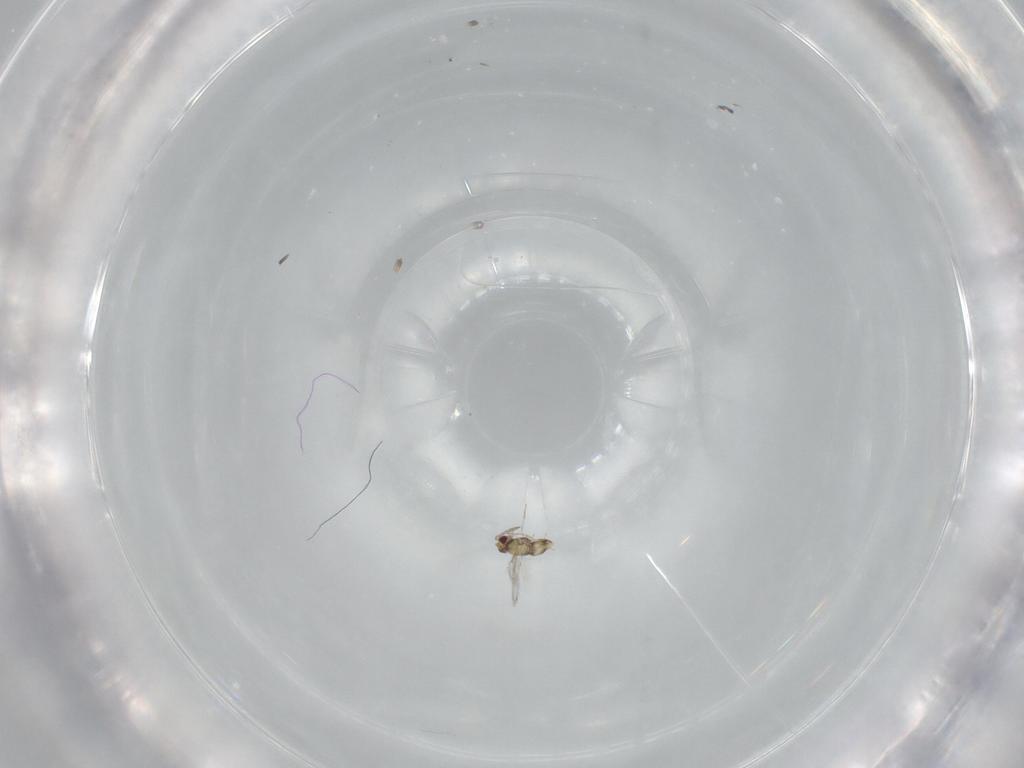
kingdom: Animalia
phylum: Arthropoda
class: Insecta
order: Hymenoptera
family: Aphelinidae
